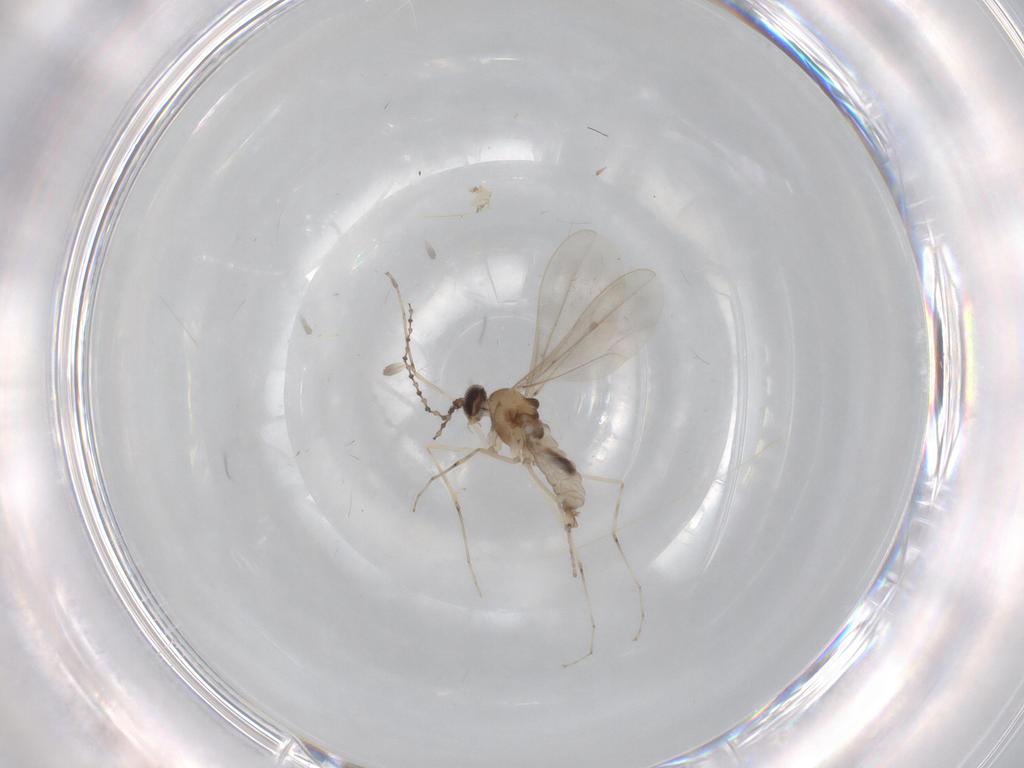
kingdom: Animalia
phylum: Arthropoda
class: Insecta
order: Diptera
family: Cecidomyiidae
